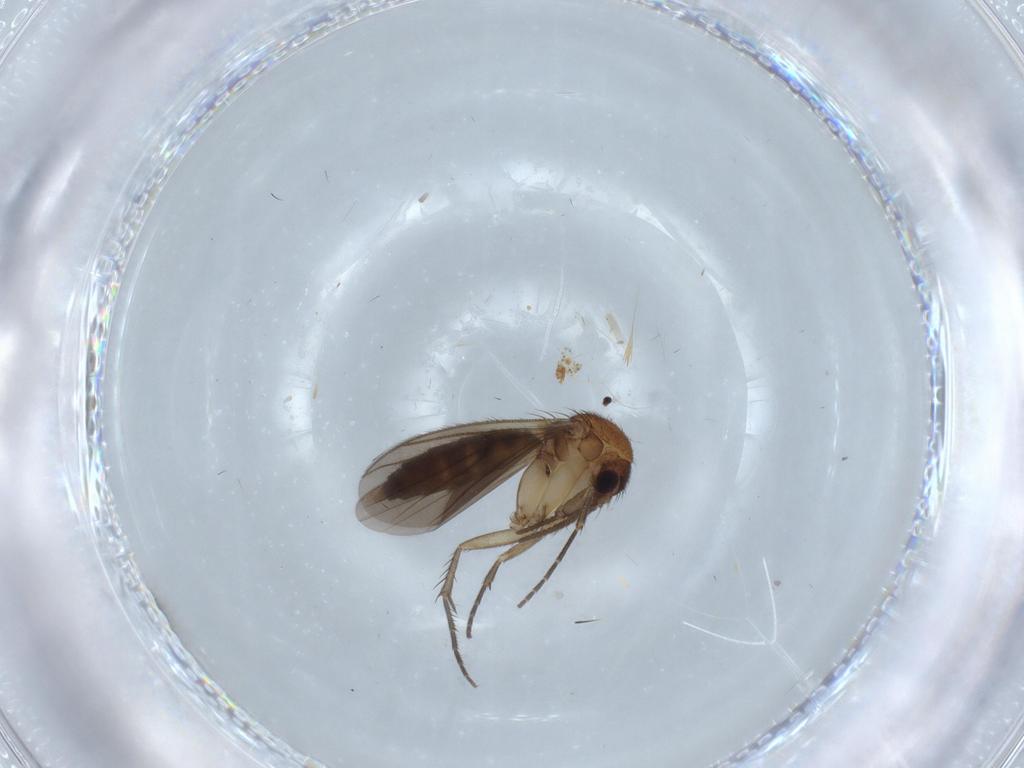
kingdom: Animalia
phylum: Arthropoda
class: Insecta
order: Diptera
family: Mycetophilidae
